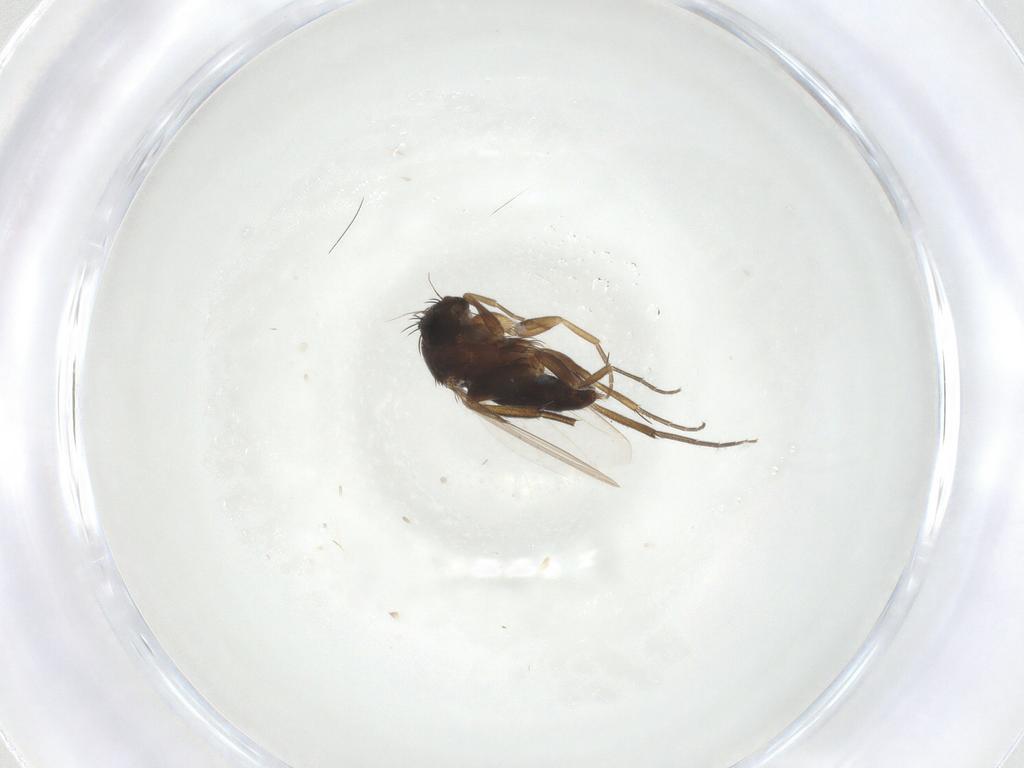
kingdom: Animalia
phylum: Arthropoda
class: Insecta
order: Diptera
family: Phoridae
